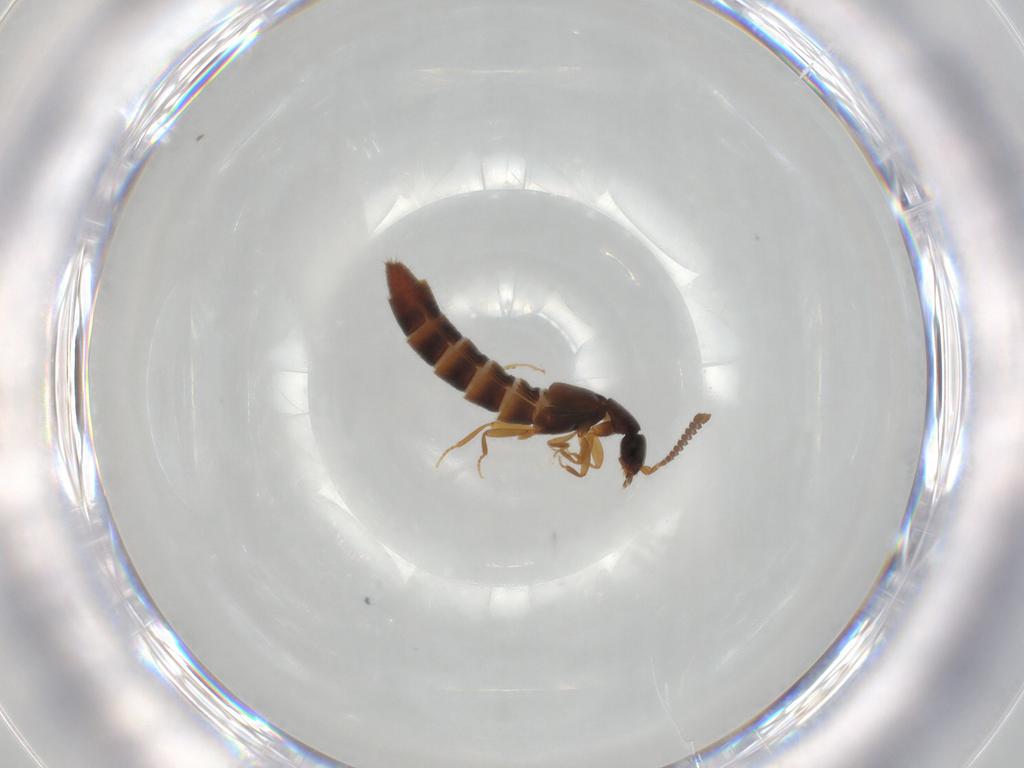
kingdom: Animalia
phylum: Arthropoda
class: Insecta
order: Coleoptera
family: Staphylinidae
